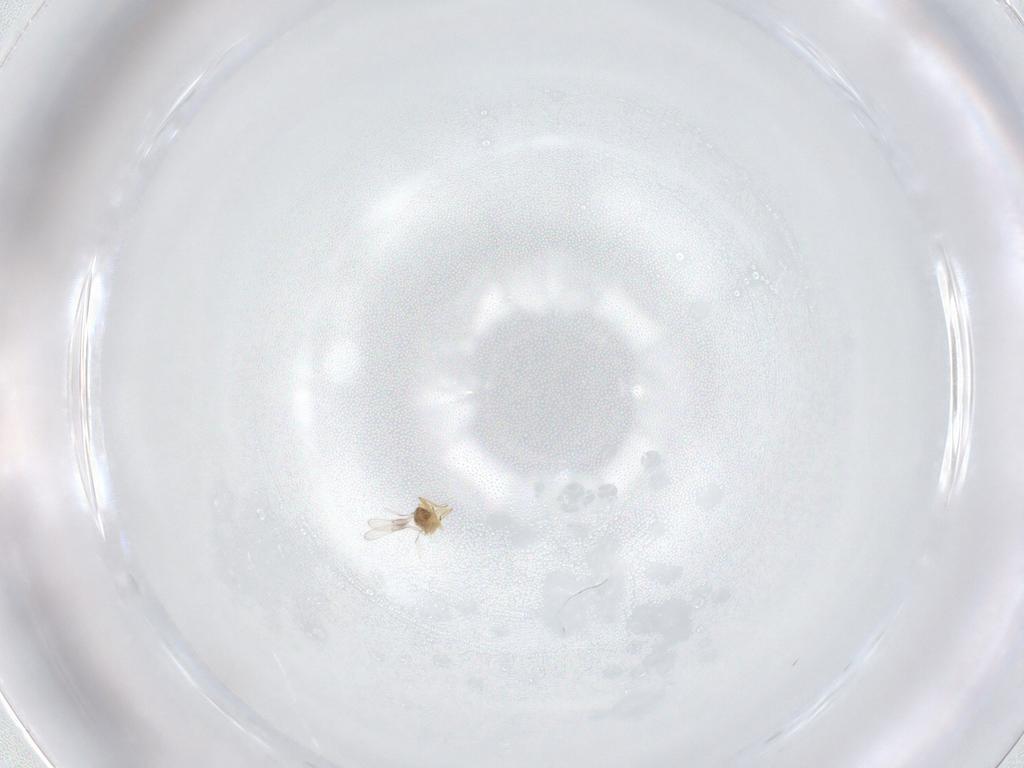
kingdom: Animalia
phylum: Arthropoda
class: Insecta
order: Hymenoptera
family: Trichogrammatidae
